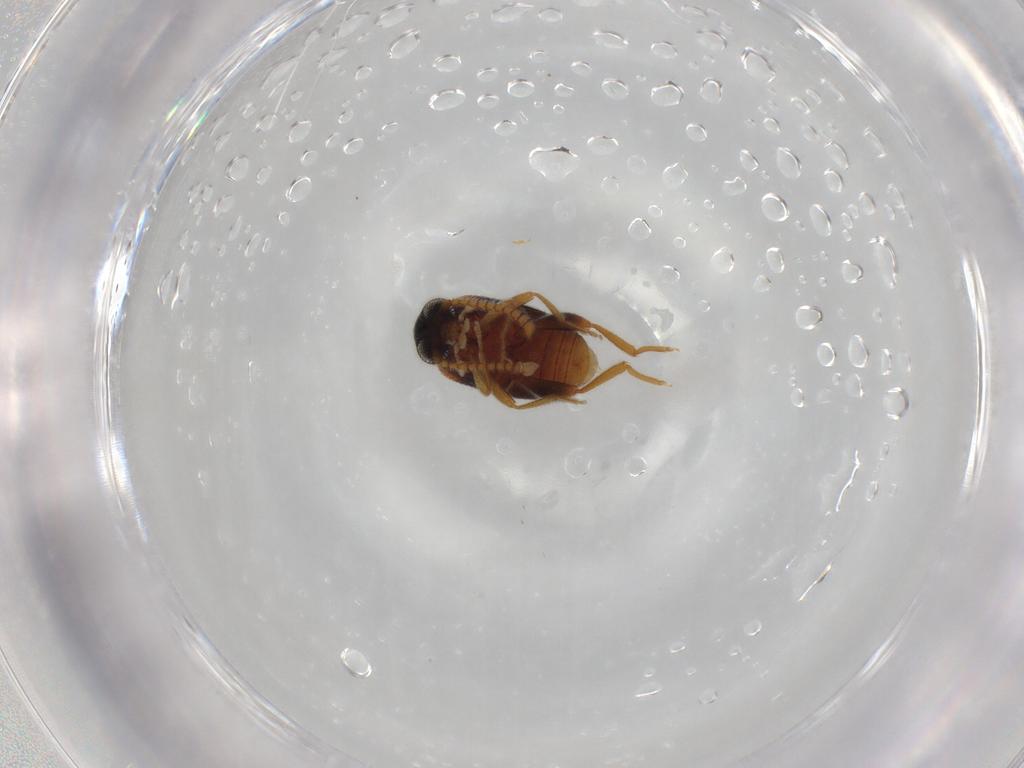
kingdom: Animalia
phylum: Arthropoda
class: Insecta
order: Coleoptera
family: Aderidae
